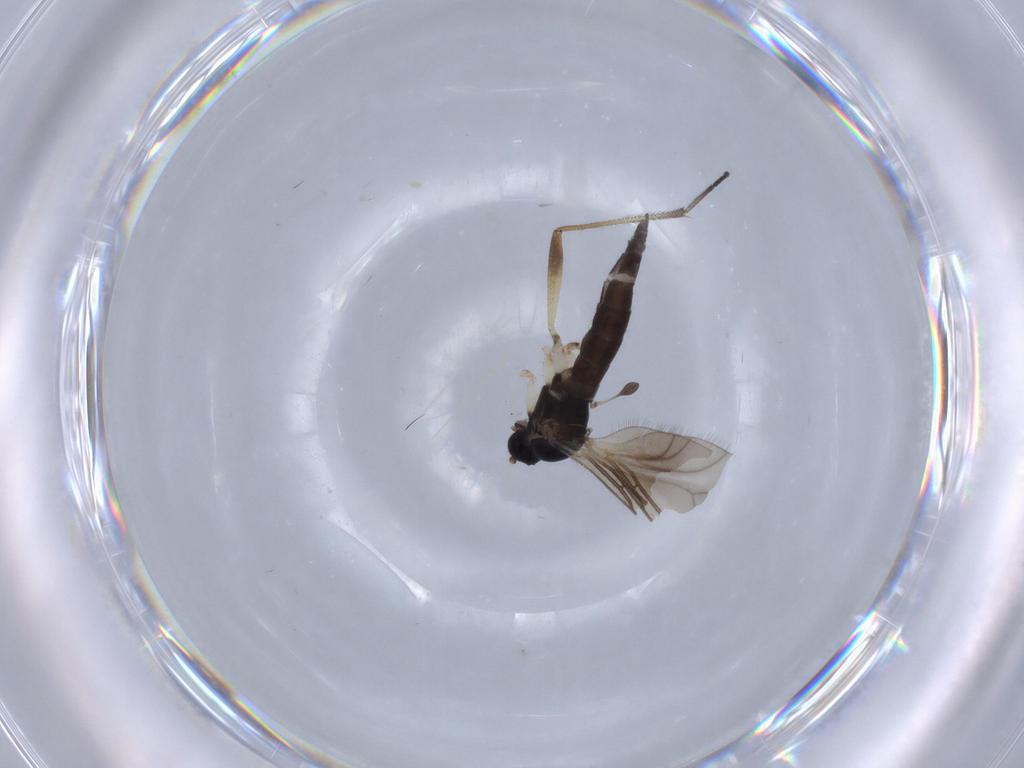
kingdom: Animalia
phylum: Arthropoda
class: Insecta
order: Diptera
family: Sciaridae
